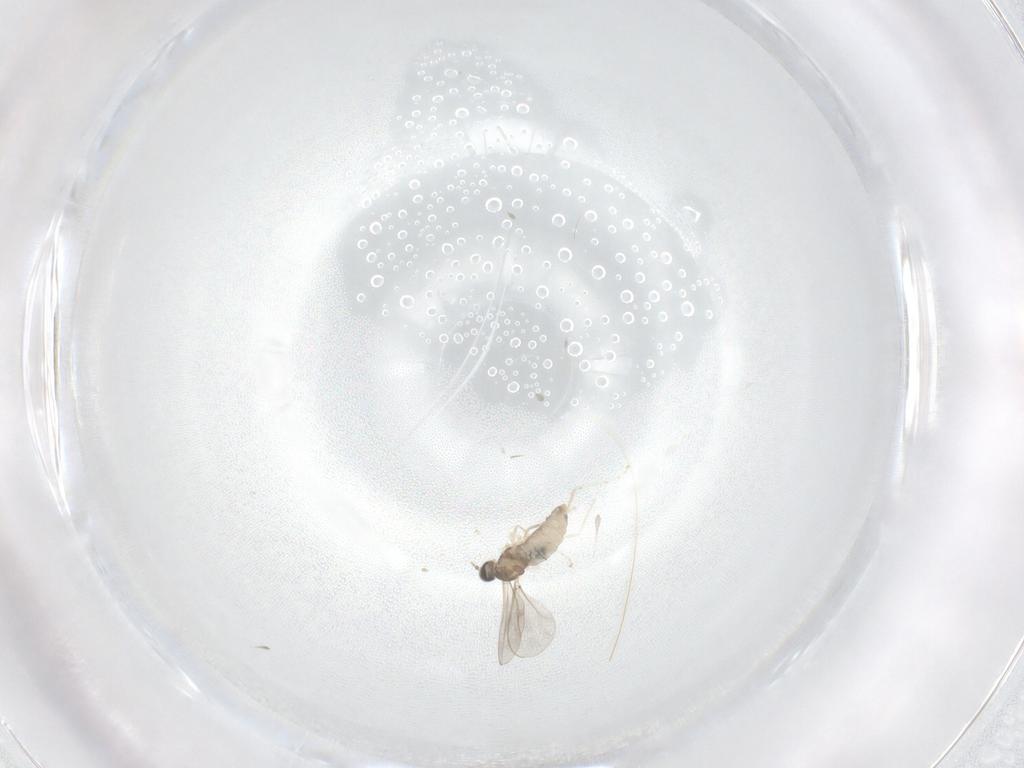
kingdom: Animalia
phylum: Arthropoda
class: Insecta
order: Diptera
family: Cecidomyiidae
